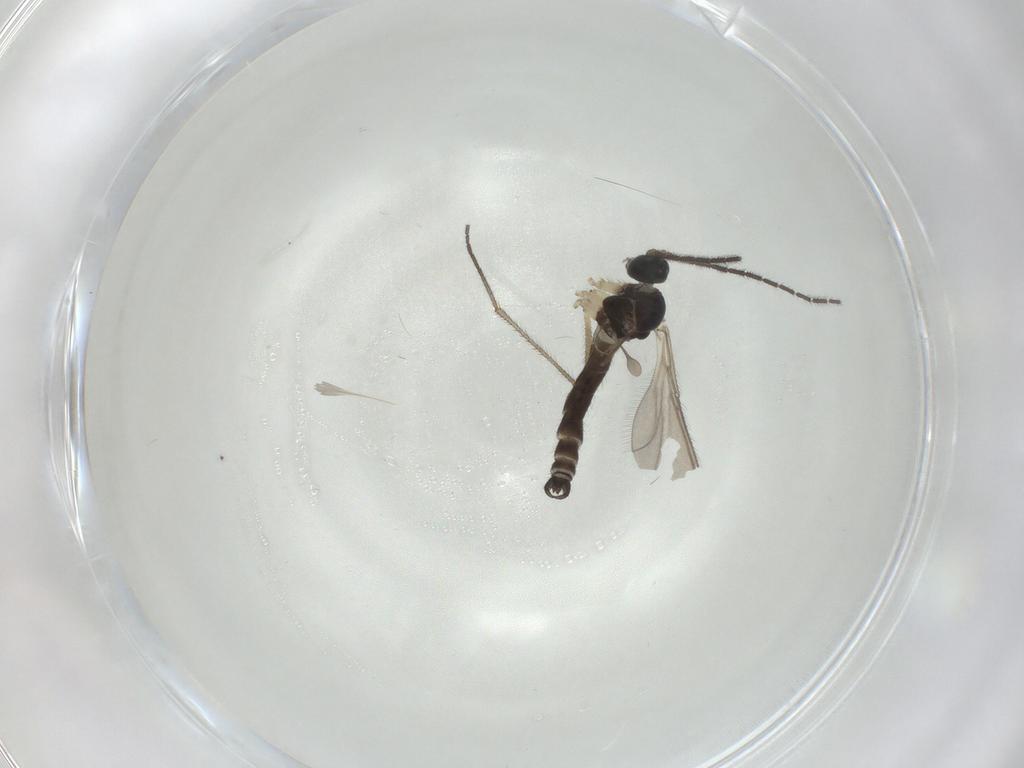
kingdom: Animalia
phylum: Arthropoda
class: Insecta
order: Diptera
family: Sciaridae
